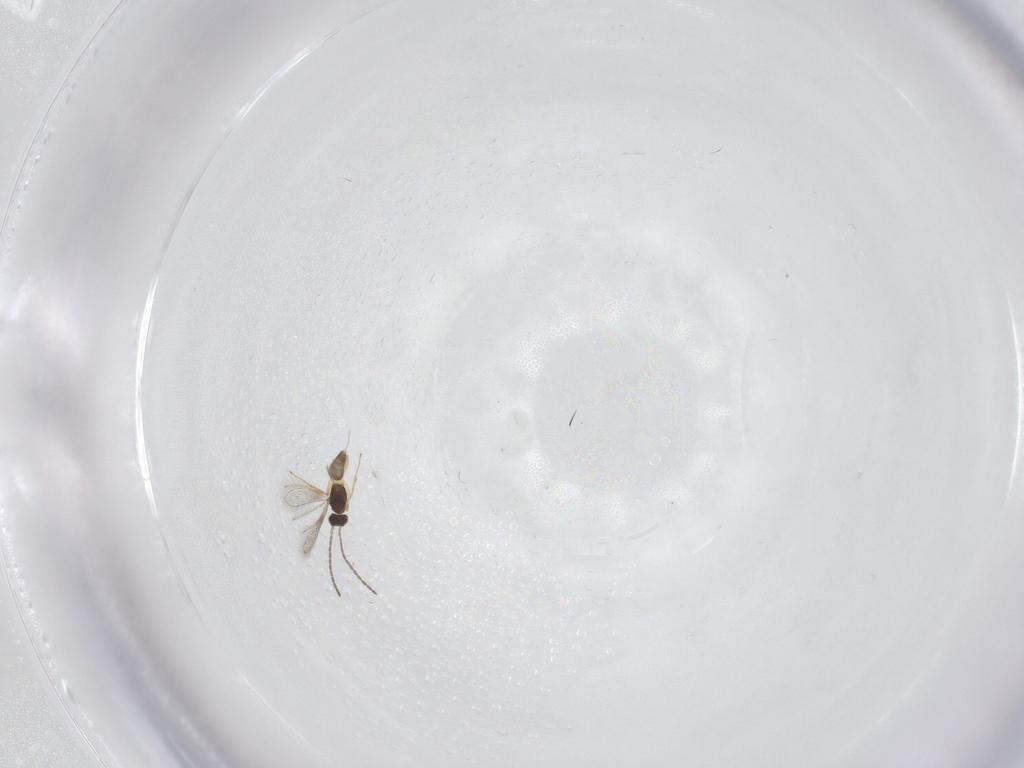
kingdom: Animalia
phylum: Arthropoda
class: Insecta
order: Hymenoptera
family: Mymaridae
